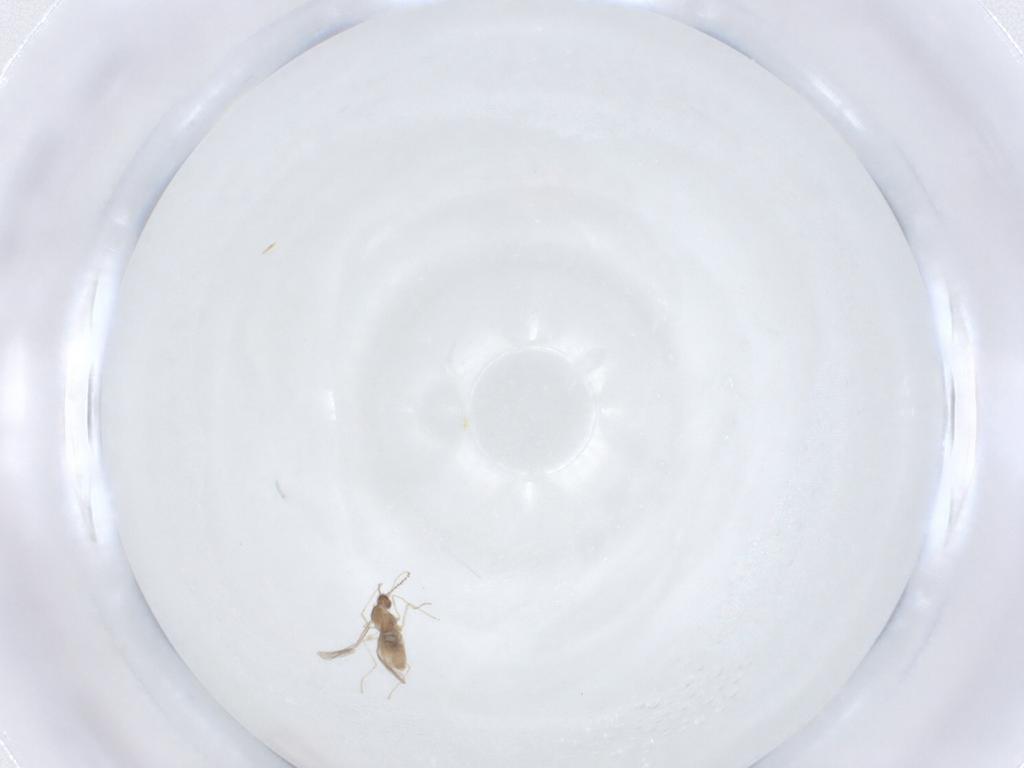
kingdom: Animalia
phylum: Arthropoda
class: Insecta
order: Diptera
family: Cecidomyiidae
